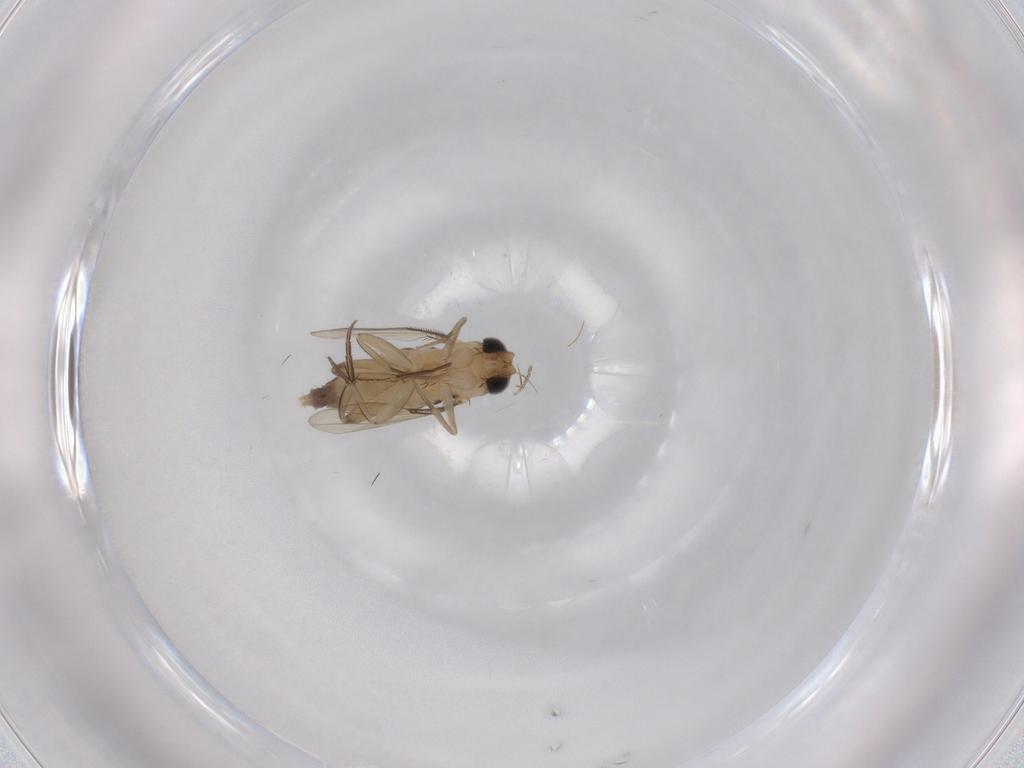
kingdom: Animalia
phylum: Arthropoda
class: Insecta
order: Diptera
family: Phoridae
